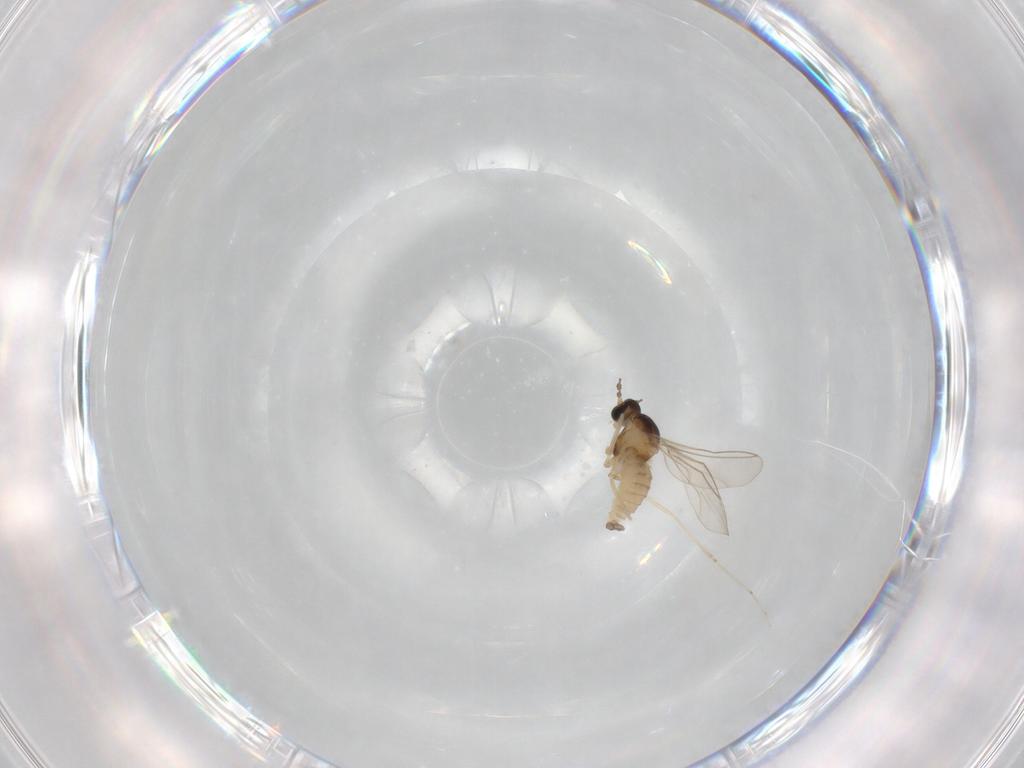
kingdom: Animalia
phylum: Arthropoda
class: Insecta
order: Diptera
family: Cecidomyiidae
